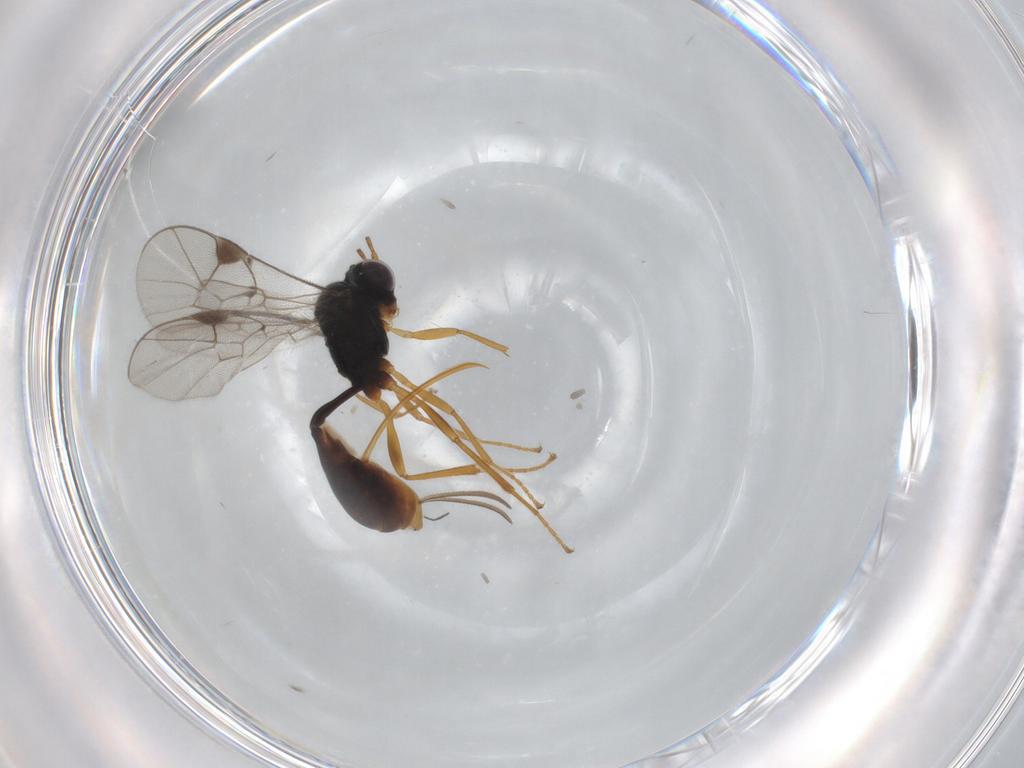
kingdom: Animalia
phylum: Arthropoda
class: Insecta
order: Hymenoptera
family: Ichneumonidae
